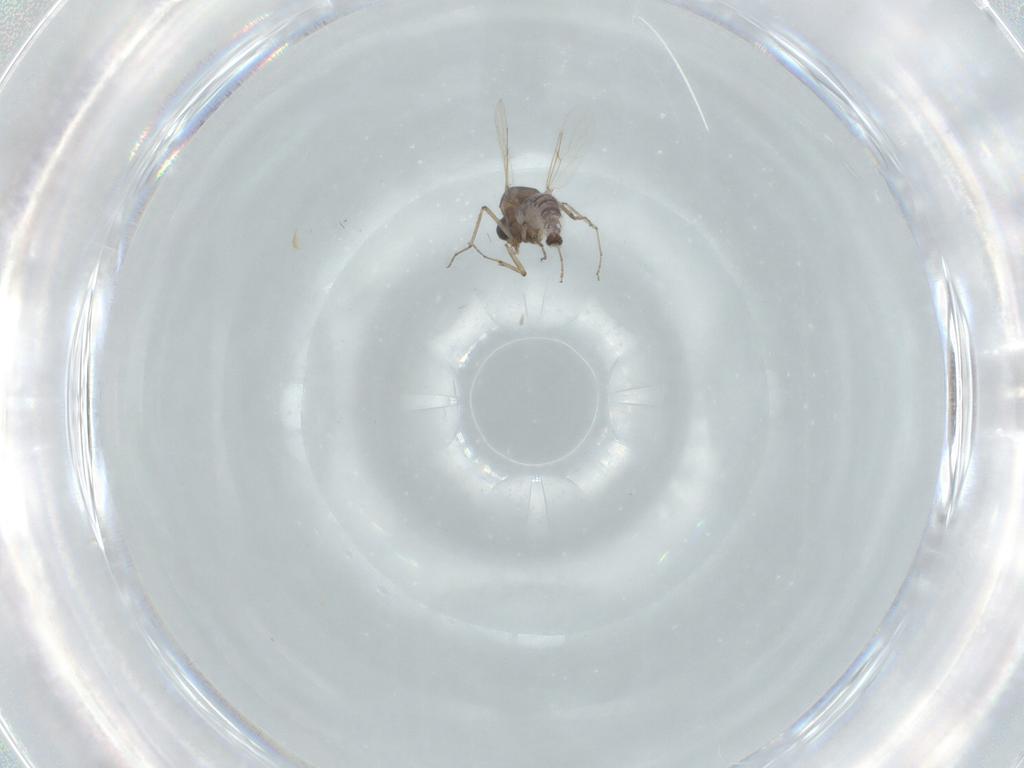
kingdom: Animalia
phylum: Arthropoda
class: Insecta
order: Diptera
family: Ceratopogonidae
